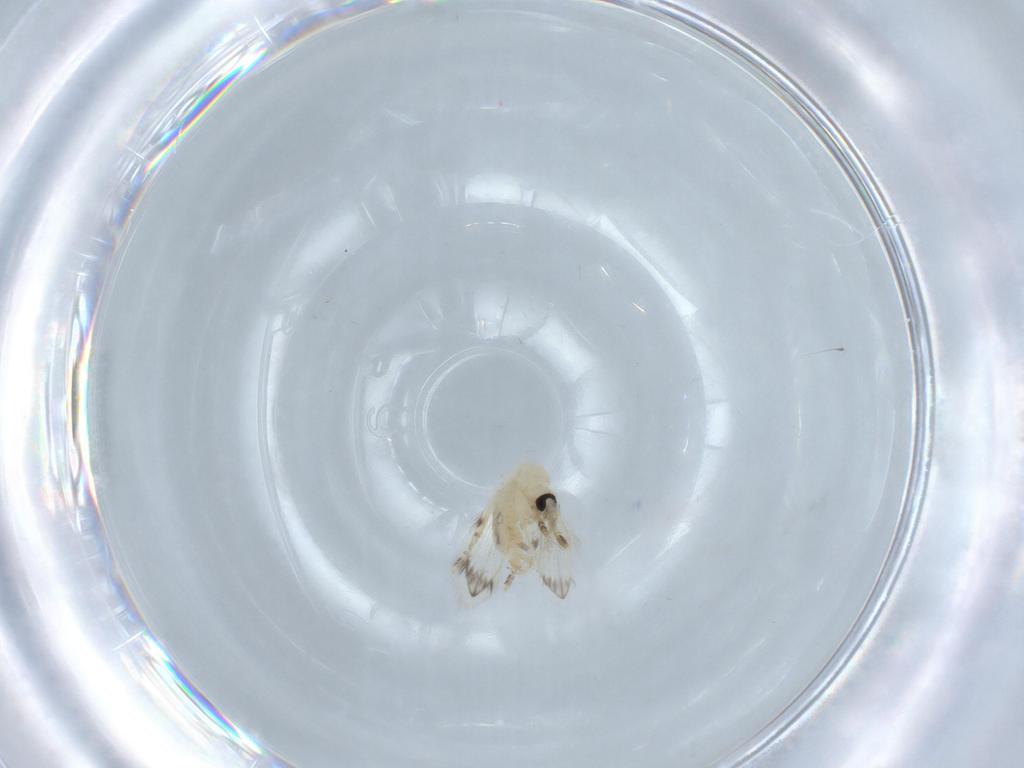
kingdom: Animalia
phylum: Arthropoda
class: Insecta
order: Diptera
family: Psychodidae
